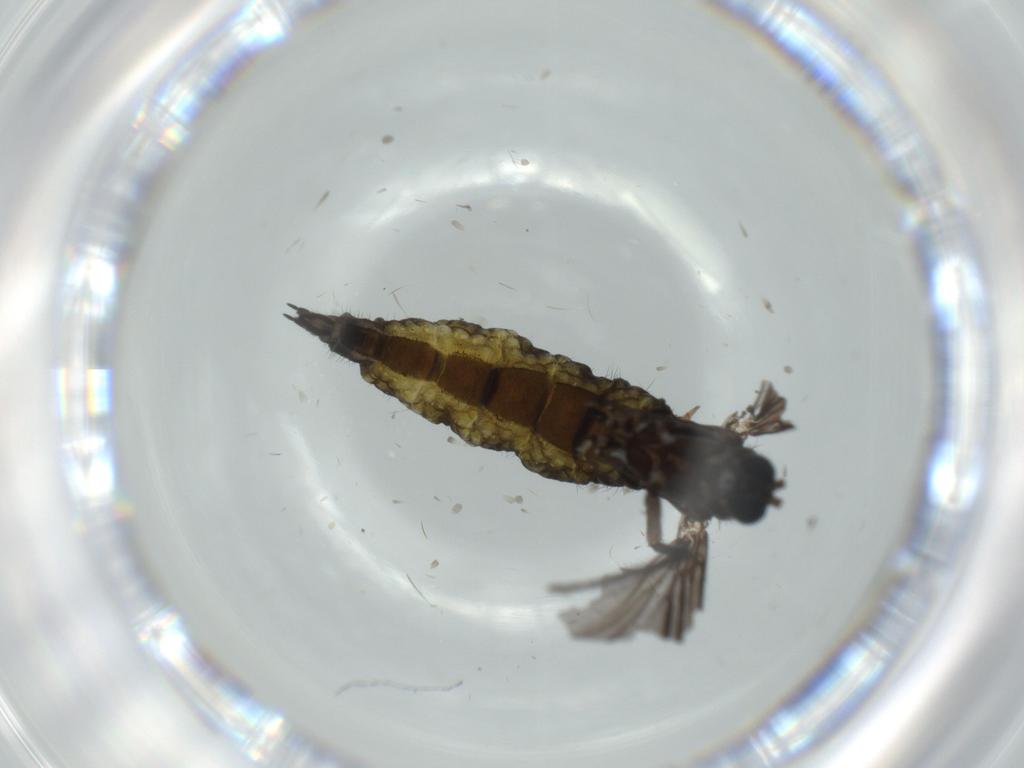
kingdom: Animalia
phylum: Arthropoda
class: Insecta
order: Diptera
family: Sciaridae
